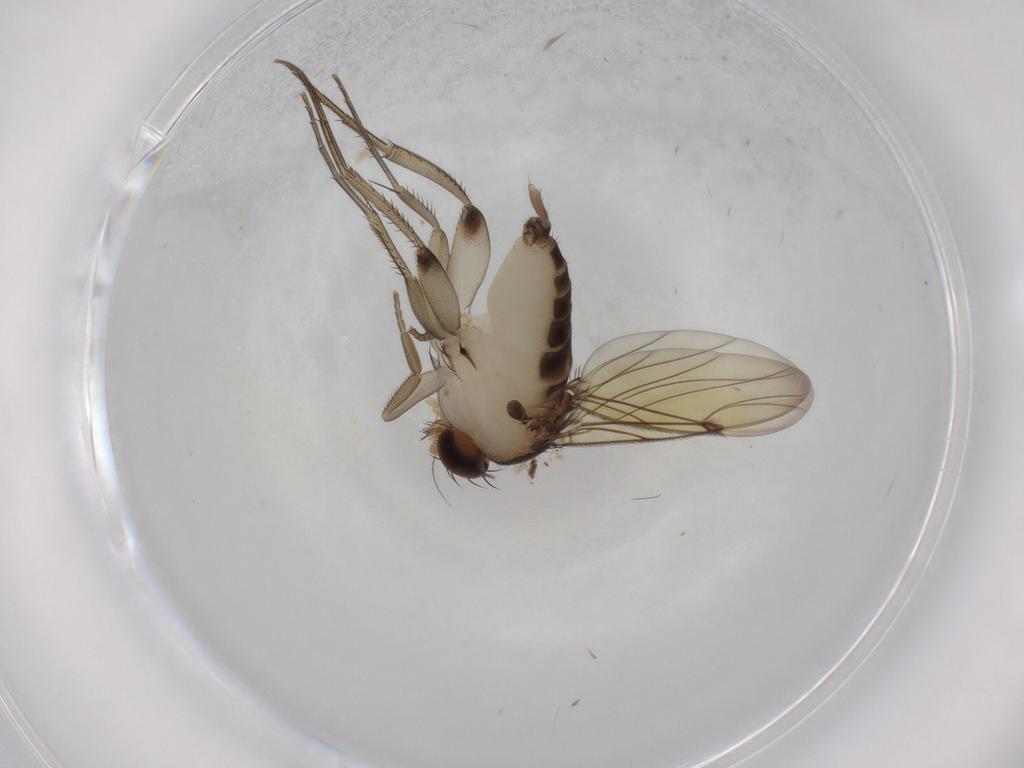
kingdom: Animalia
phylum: Arthropoda
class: Insecta
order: Diptera
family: Phoridae
